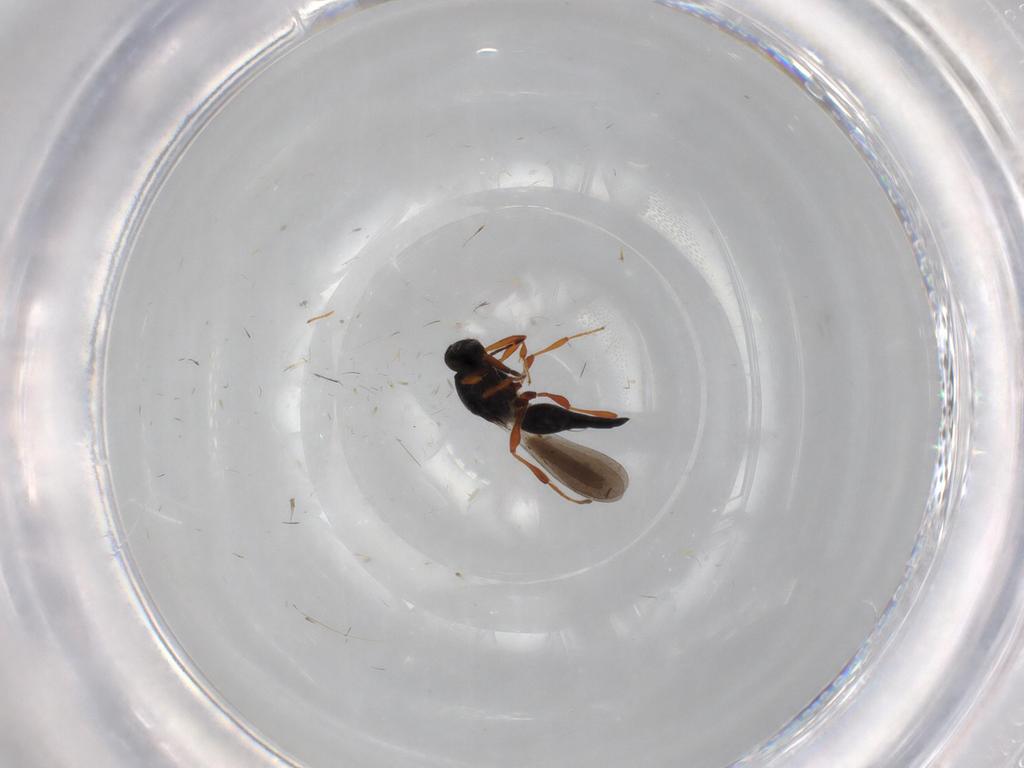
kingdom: Animalia
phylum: Arthropoda
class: Insecta
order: Hymenoptera
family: Platygastridae
